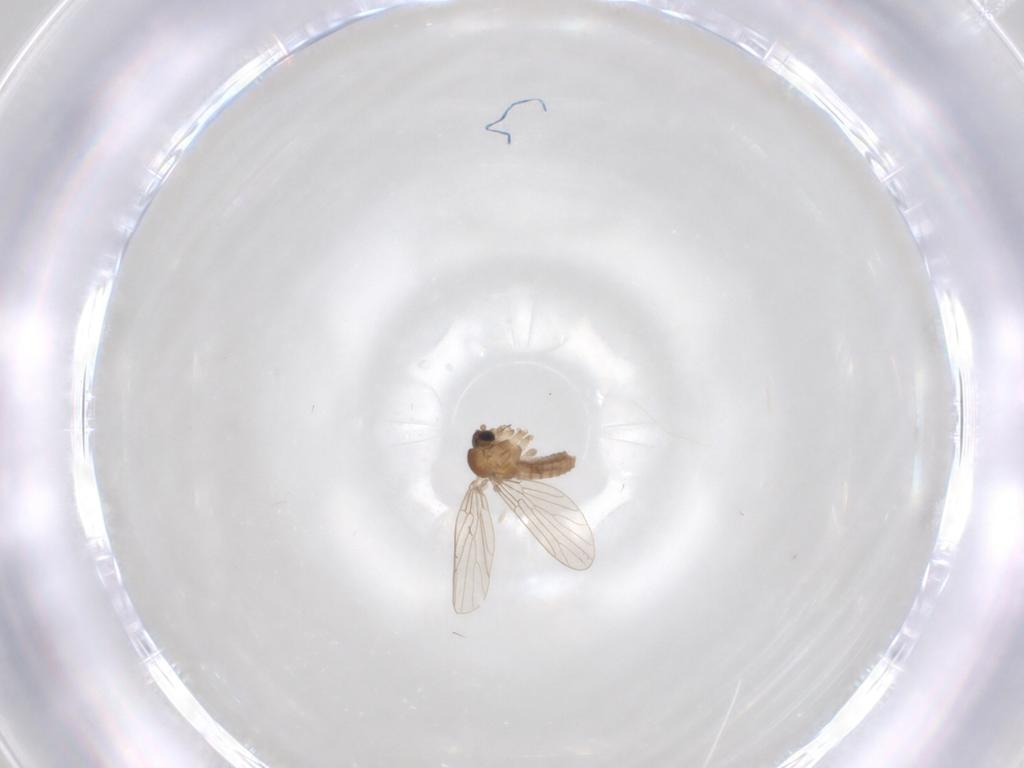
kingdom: Animalia
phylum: Arthropoda
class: Insecta
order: Diptera
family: Psychodidae
